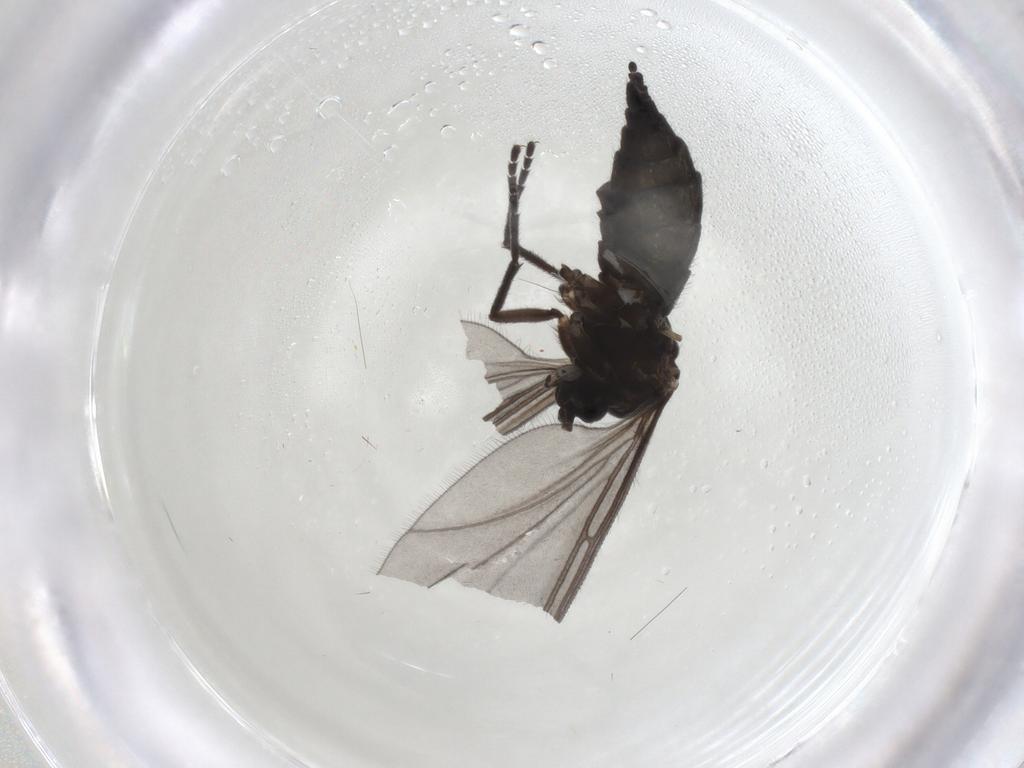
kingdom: Animalia
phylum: Arthropoda
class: Insecta
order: Diptera
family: Sciaridae
